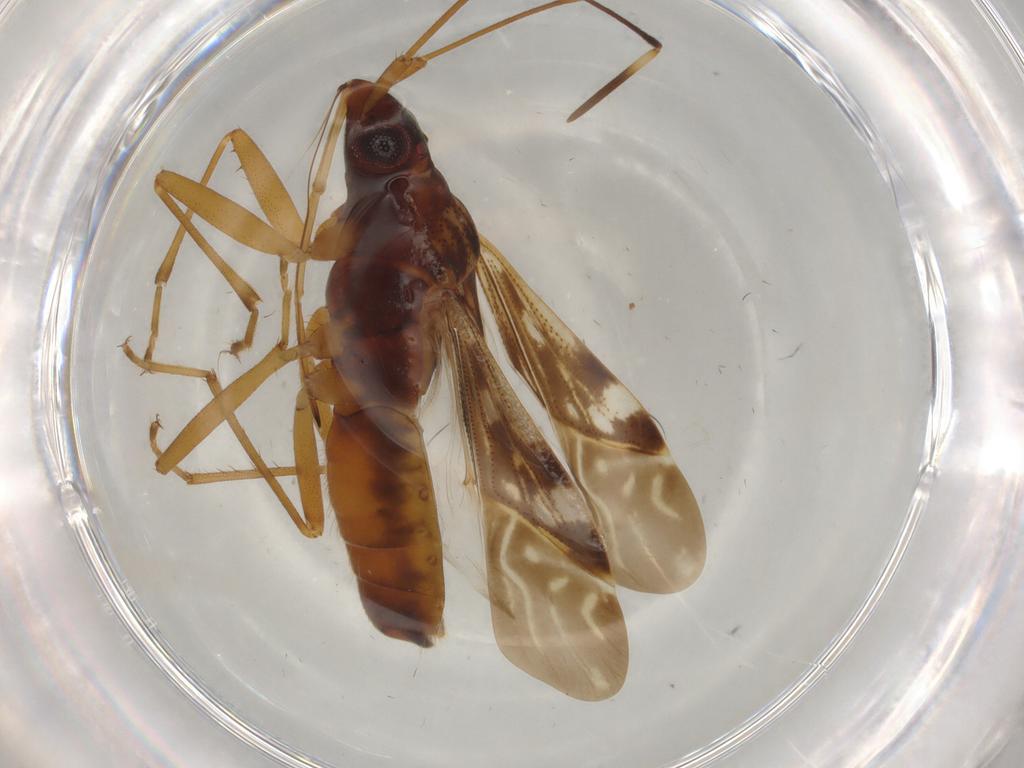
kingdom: Animalia
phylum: Arthropoda
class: Insecta
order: Hemiptera
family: Rhyparochromidae
